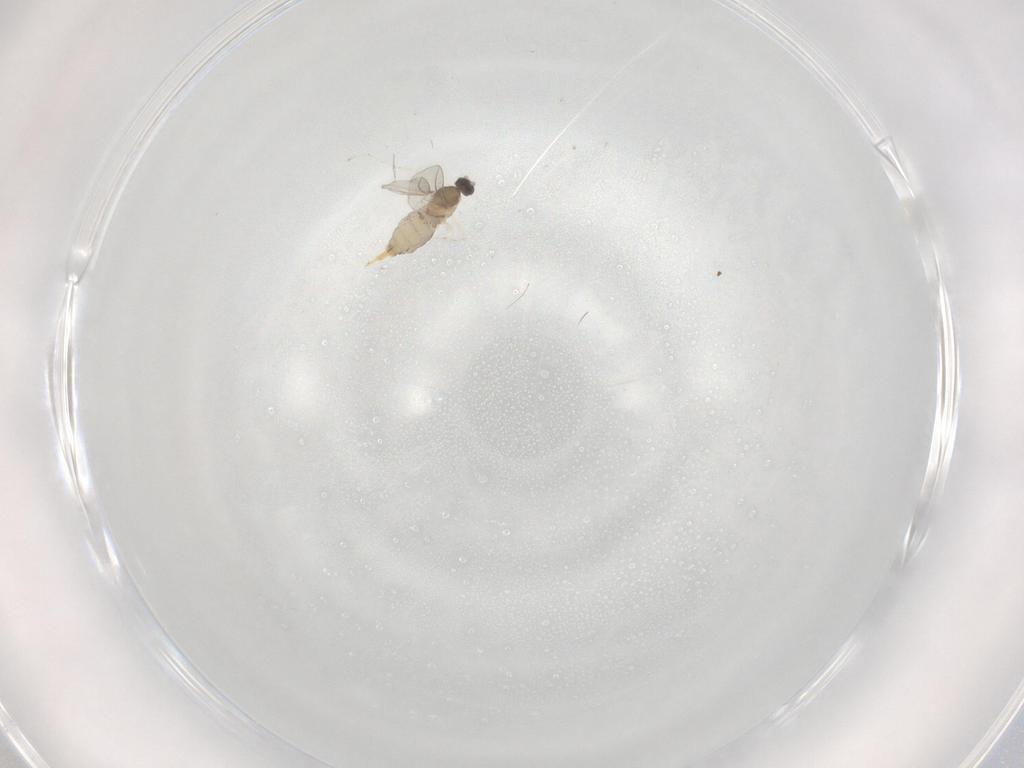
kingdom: Animalia
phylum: Arthropoda
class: Insecta
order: Diptera
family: Cecidomyiidae
